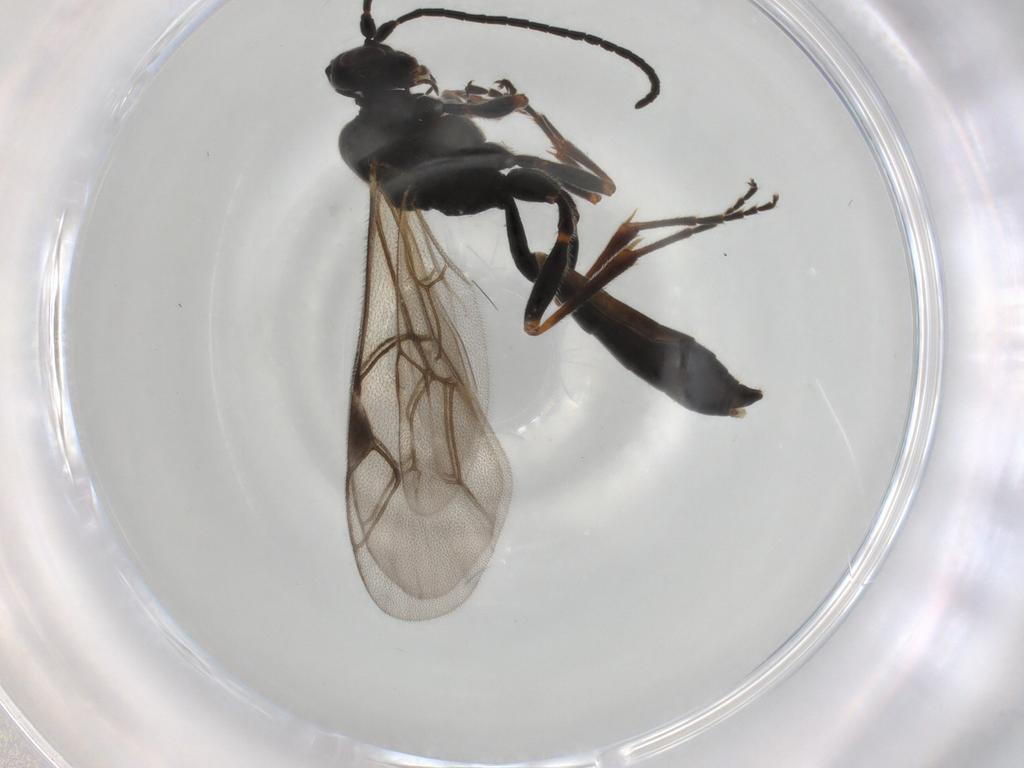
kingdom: Animalia
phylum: Arthropoda
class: Insecta
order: Hymenoptera
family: Ichneumonidae
